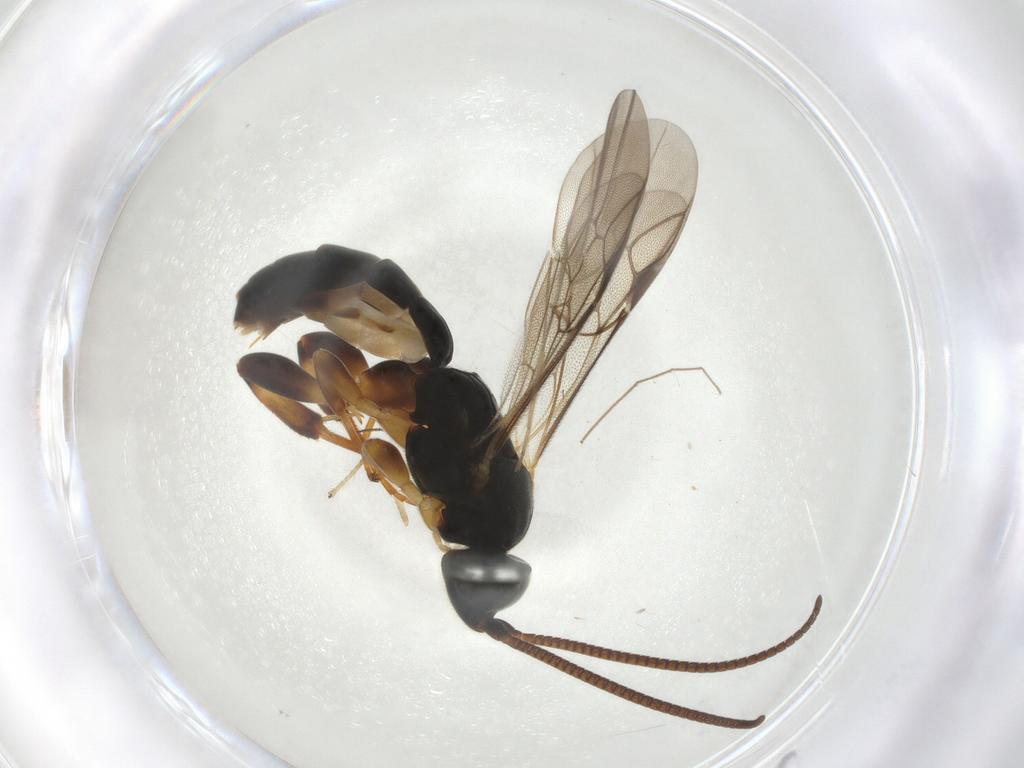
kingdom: Animalia
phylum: Arthropoda
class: Insecta
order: Hymenoptera
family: Ichneumonidae
